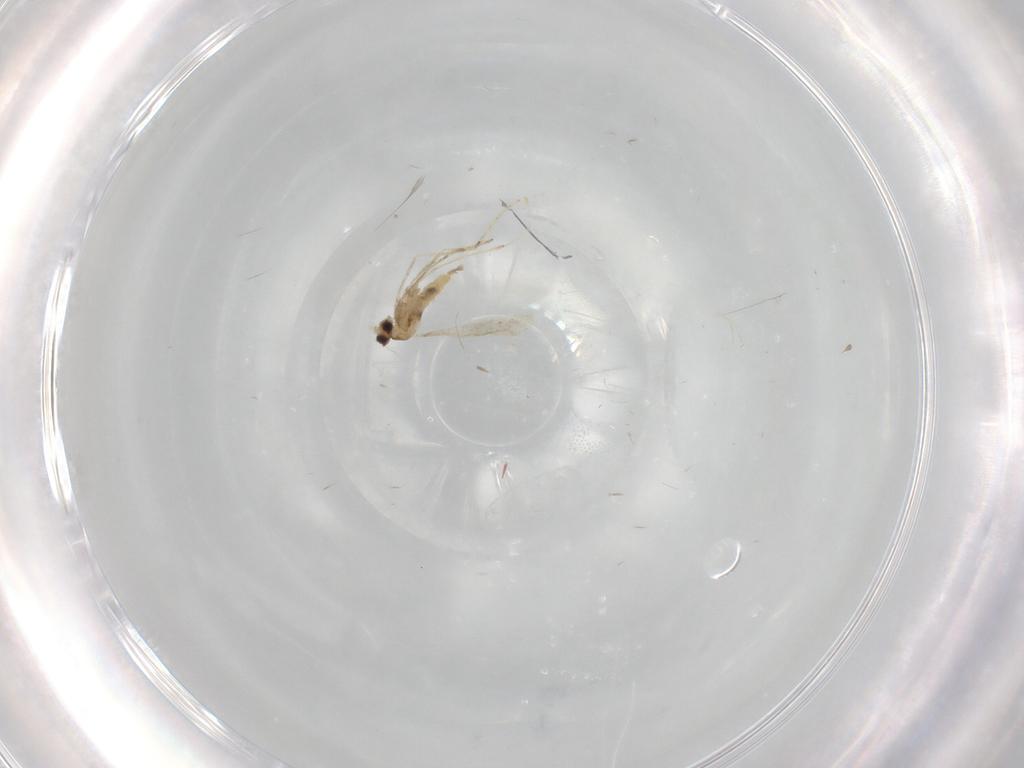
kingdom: Animalia
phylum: Arthropoda
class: Insecta
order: Diptera
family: Cecidomyiidae
